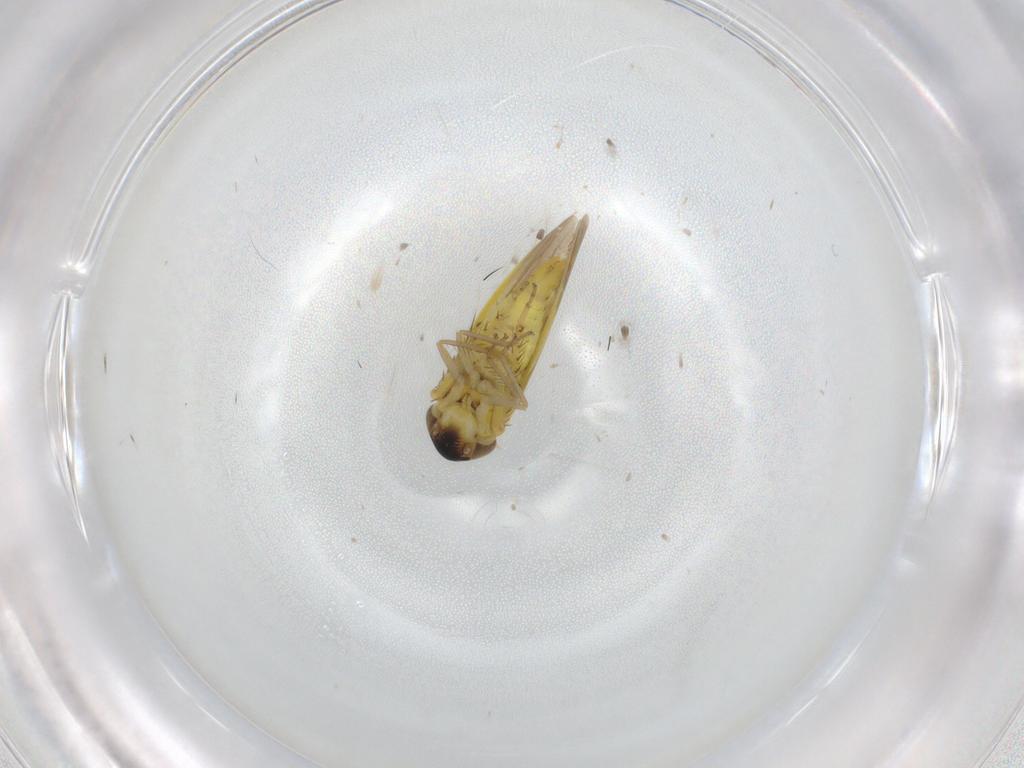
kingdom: Animalia
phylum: Arthropoda
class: Insecta
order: Hemiptera
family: Cicadellidae
